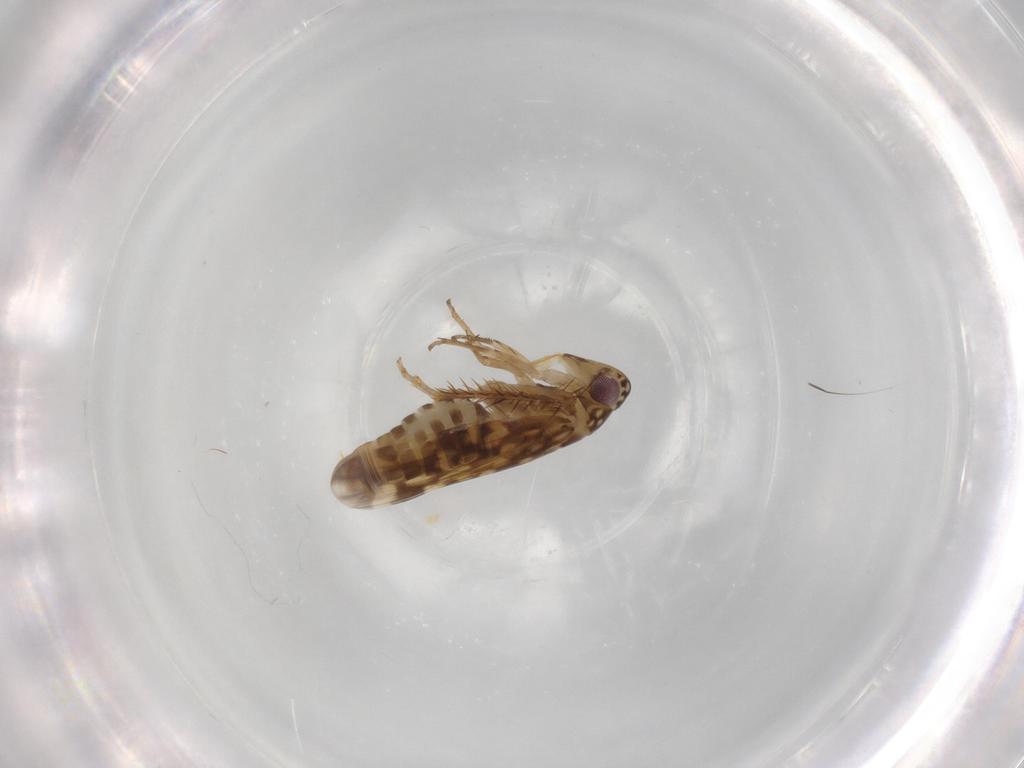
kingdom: Animalia
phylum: Arthropoda
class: Insecta
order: Hemiptera
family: Cicadellidae
